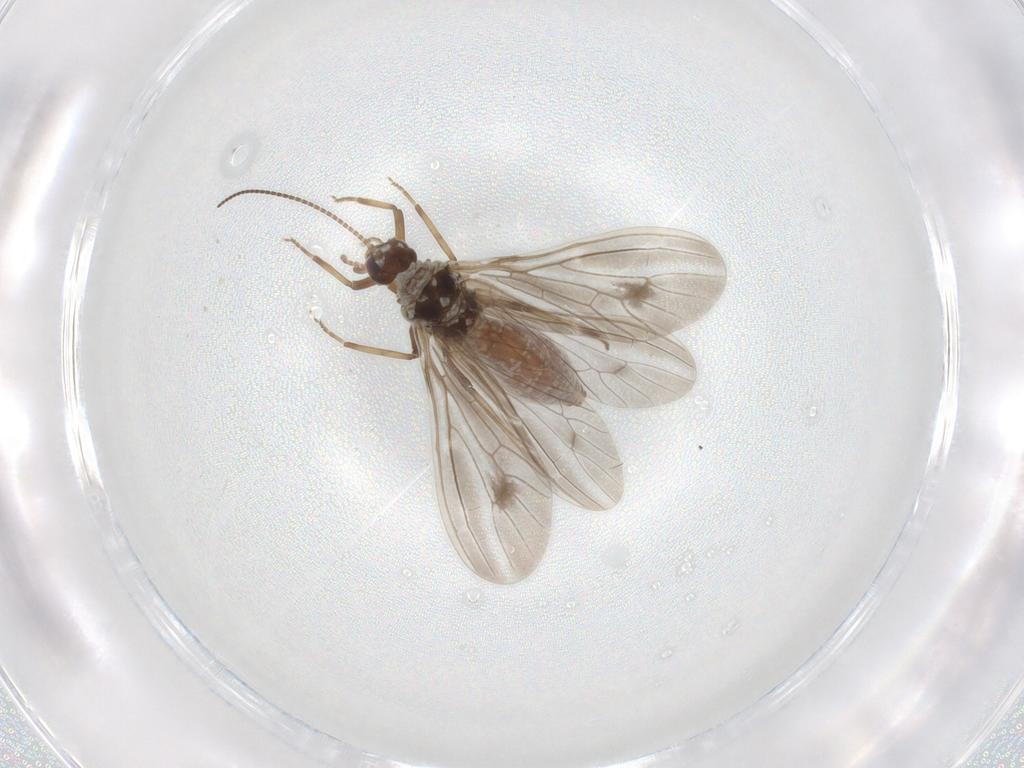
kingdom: Animalia
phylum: Arthropoda
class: Insecta
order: Neuroptera
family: Coniopterygidae
